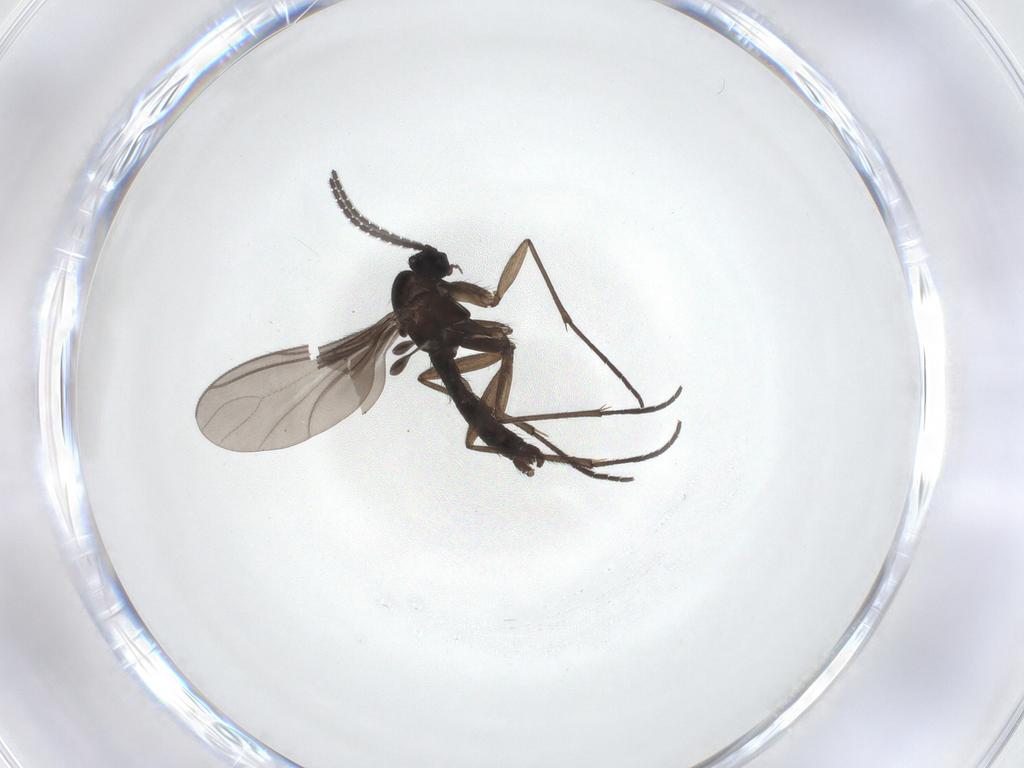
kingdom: Animalia
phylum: Arthropoda
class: Insecta
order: Diptera
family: Sciaridae
